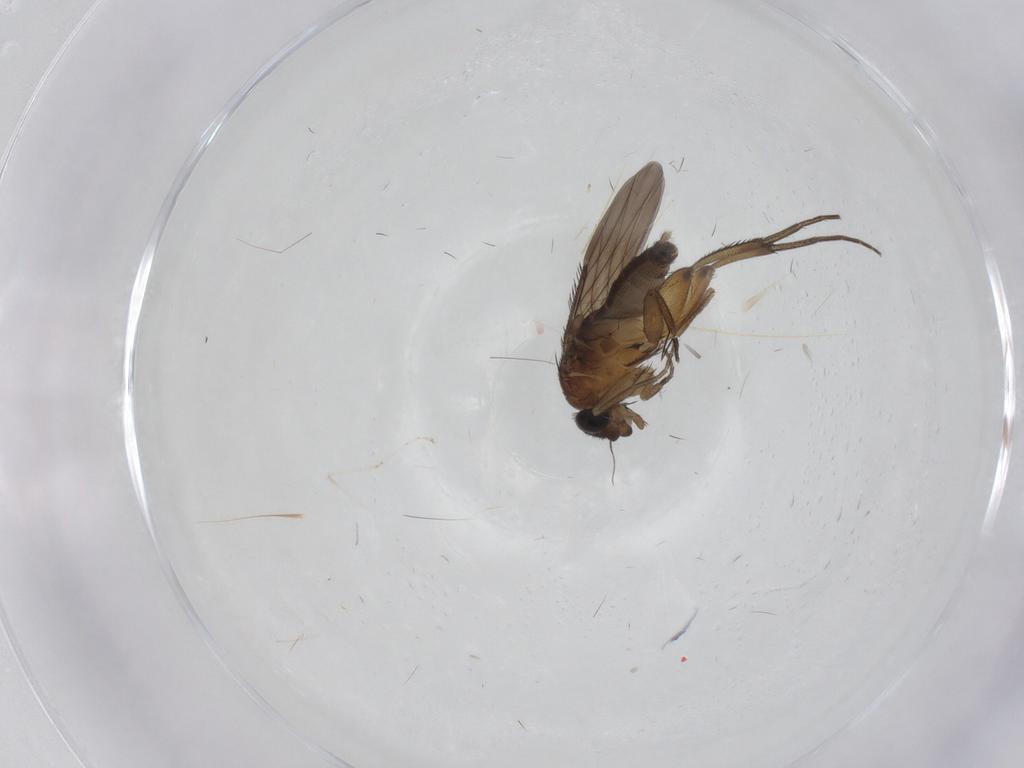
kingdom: Animalia
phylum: Arthropoda
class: Insecta
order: Diptera
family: Phoridae
